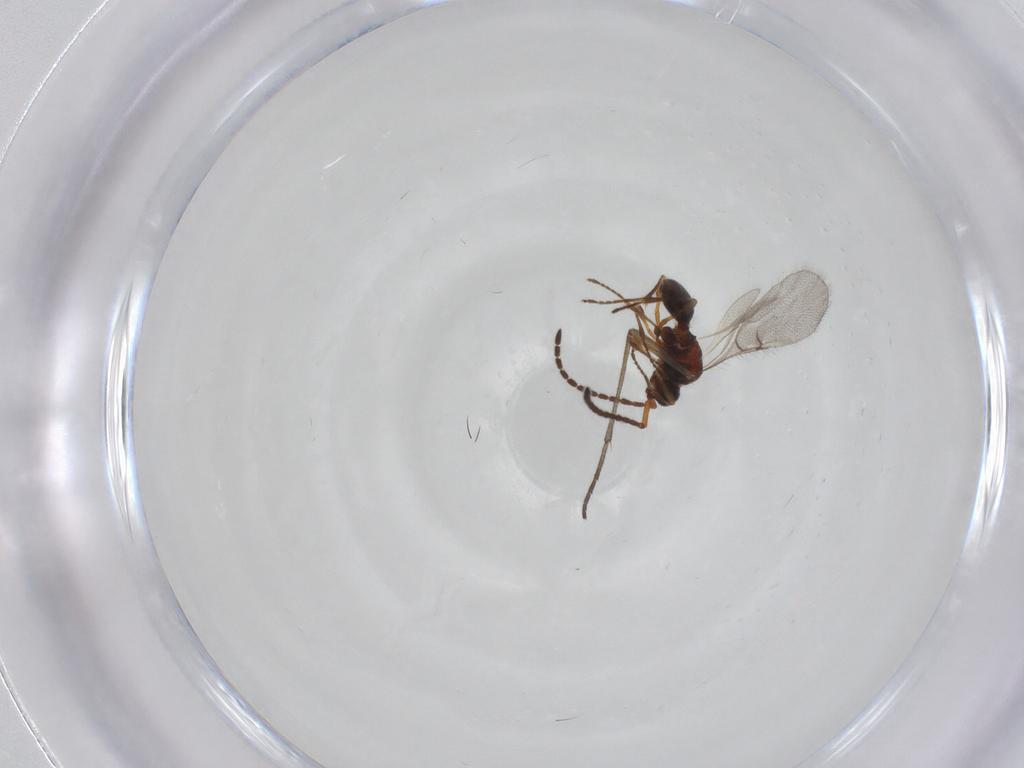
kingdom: Animalia
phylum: Arthropoda
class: Insecta
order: Hymenoptera
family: Diapriidae
